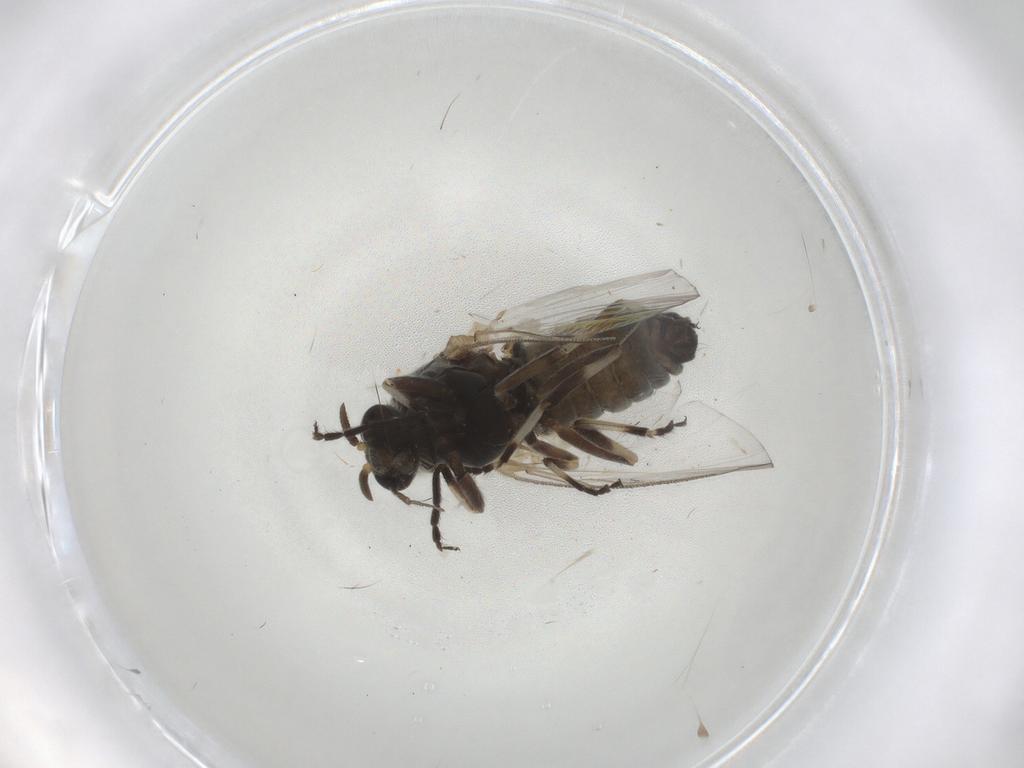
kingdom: Animalia
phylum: Arthropoda
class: Insecta
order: Diptera
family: Simuliidae
